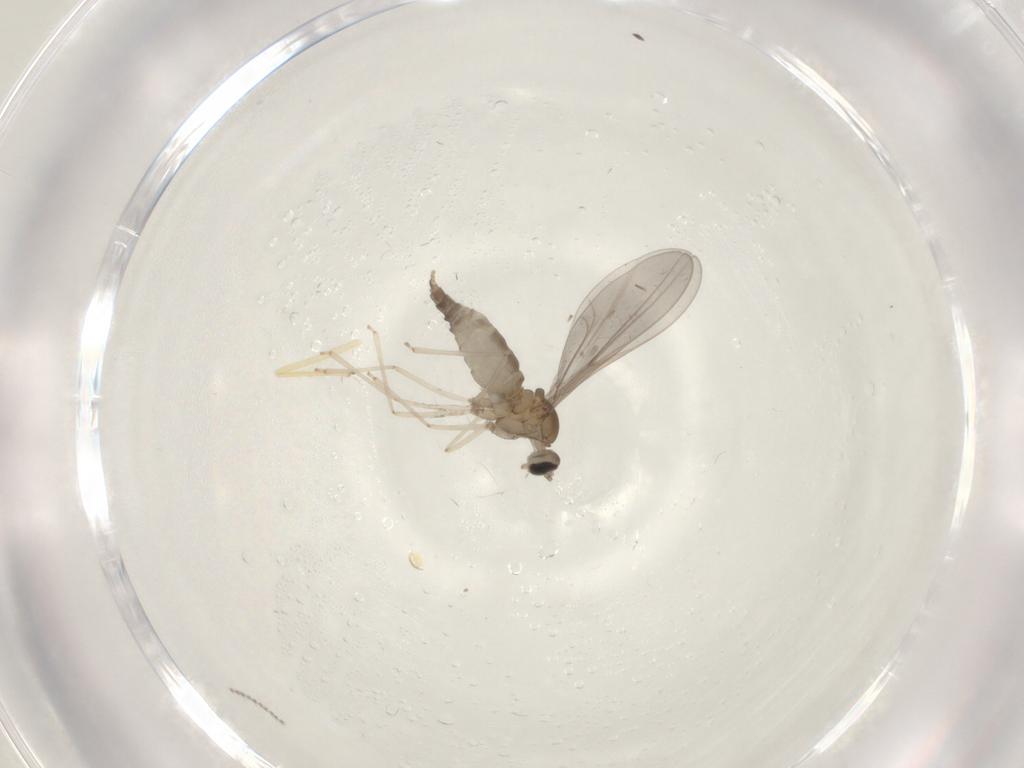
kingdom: Animalia
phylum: Arthropoda
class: Insecta
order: Diptera
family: Cecidomyiidae
